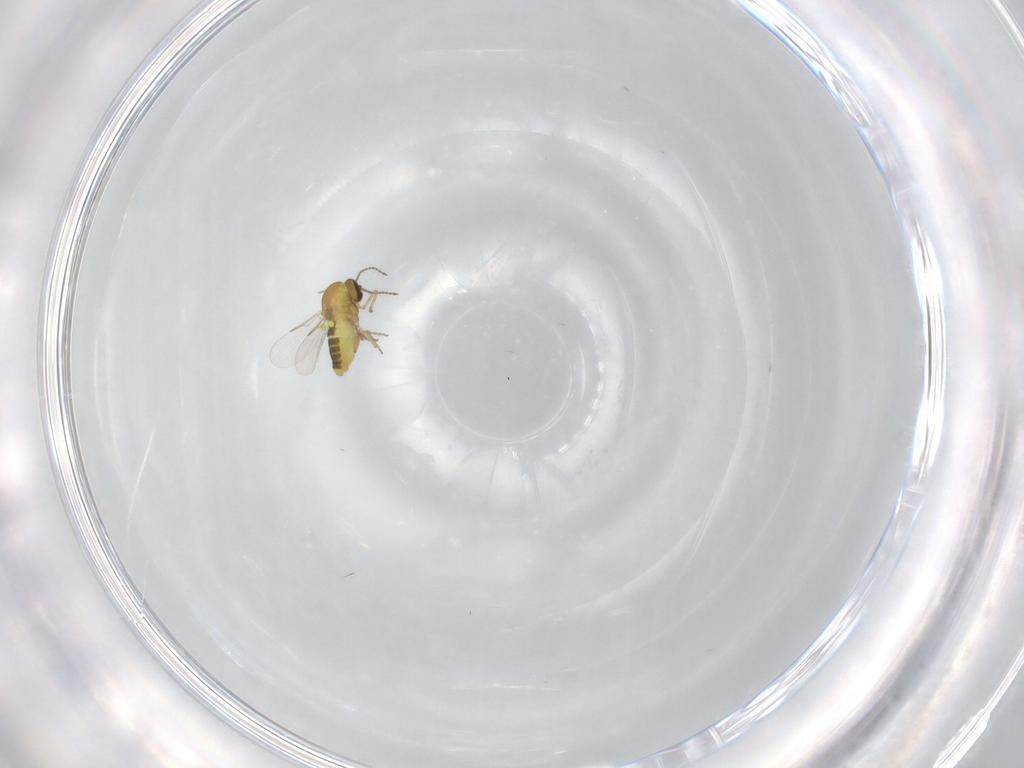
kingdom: Animalia
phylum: Arthropoda
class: Insecta
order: Diptera
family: Ceratopogonidae
